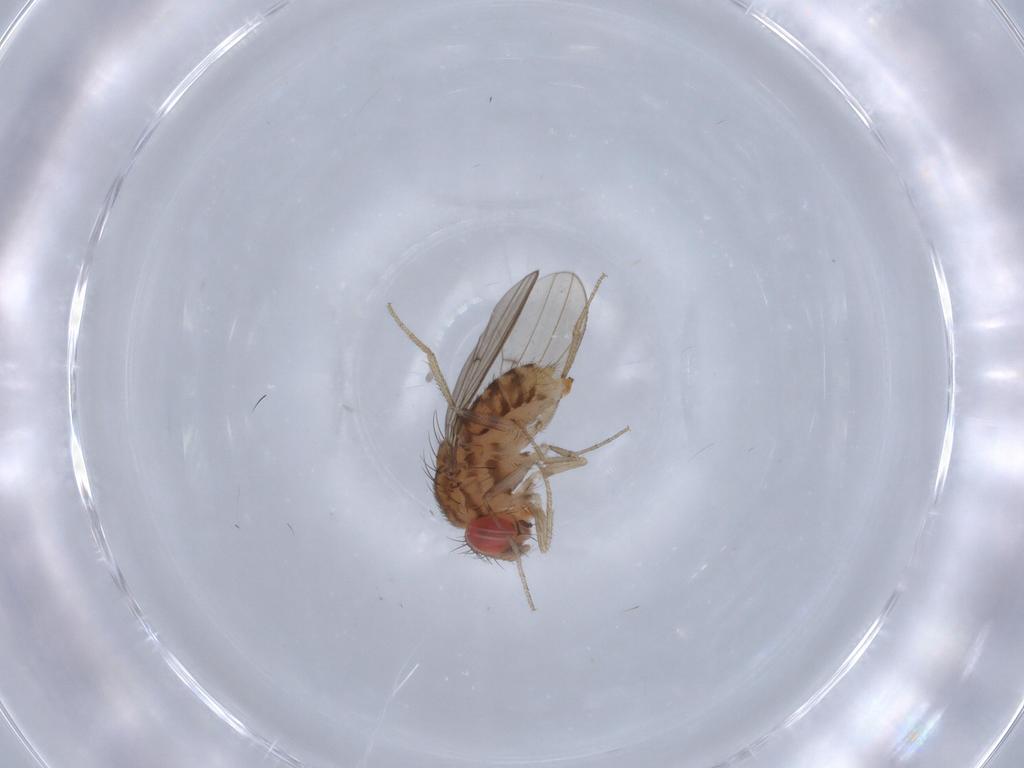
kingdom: Animalia
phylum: Arthropoda
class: Insecta
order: Diptera
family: Drosophilidae
